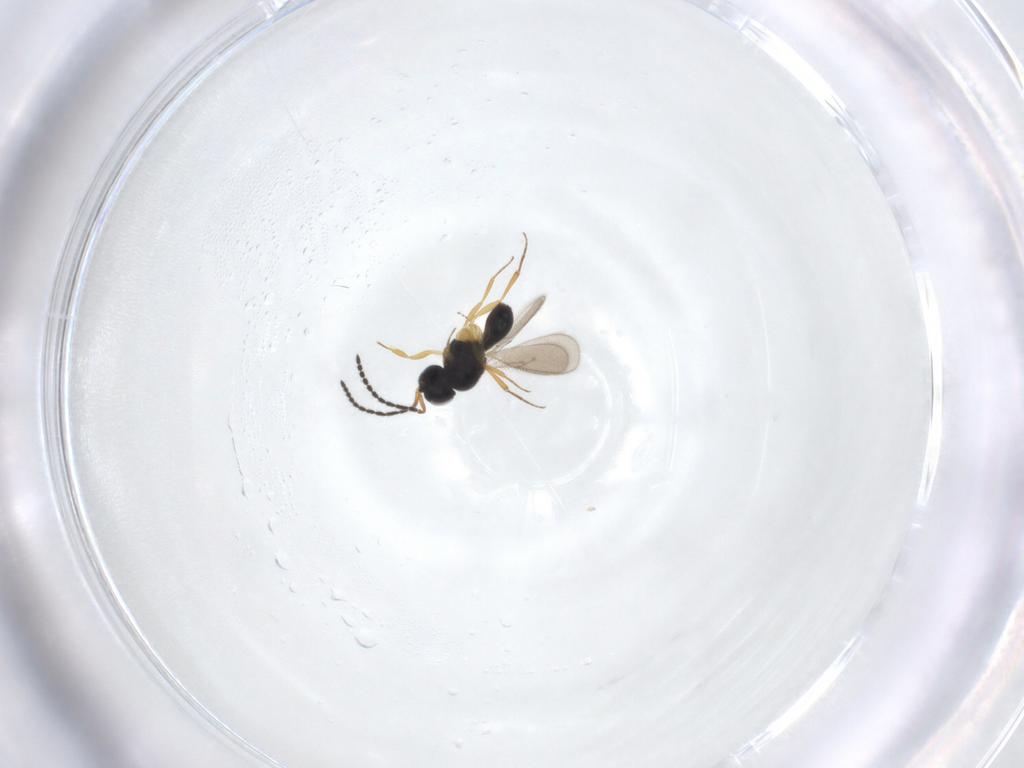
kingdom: Animalia
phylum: Arthropoda
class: Insecta
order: Hymenoptera
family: Scelionidae
